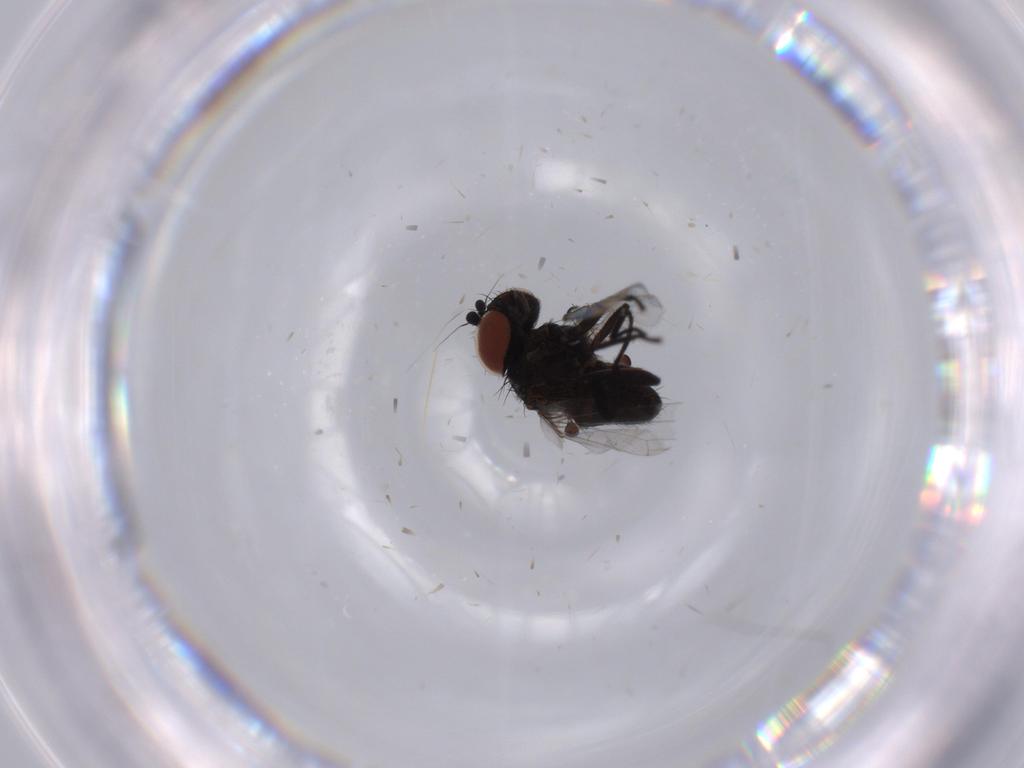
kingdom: Animalia
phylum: Arthropoda
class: Insecta
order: Diptera
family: Milichiidae
